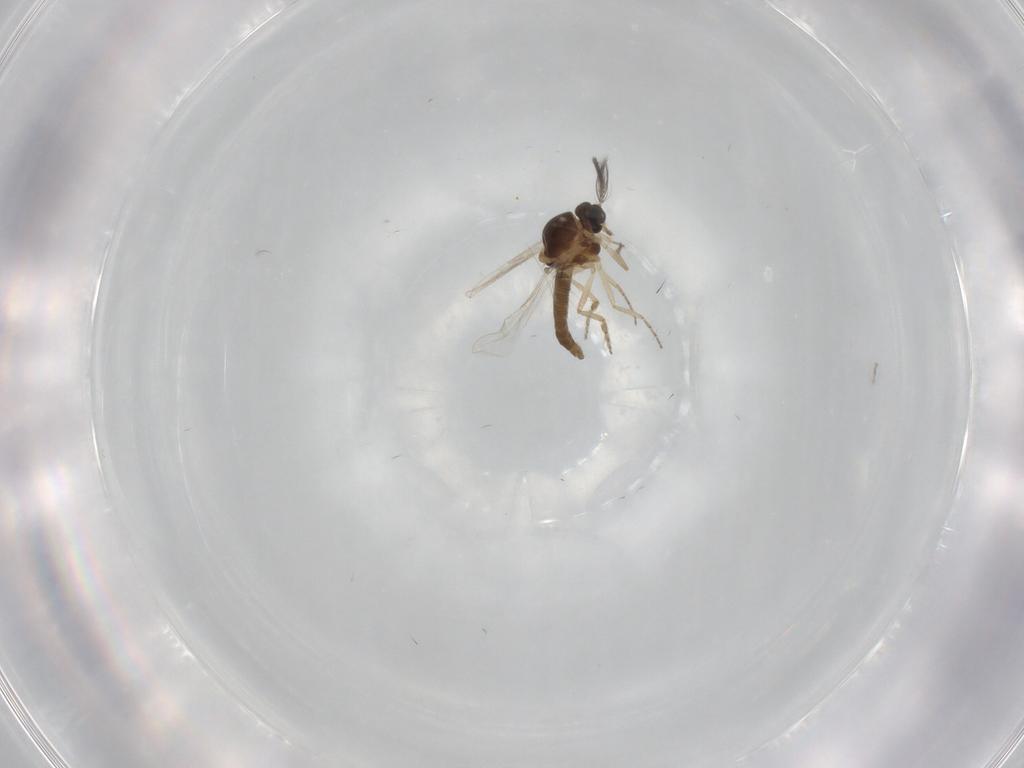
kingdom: Animalia
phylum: Arthropoda
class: Insecta
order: Diptera
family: Ceratopogonidae
